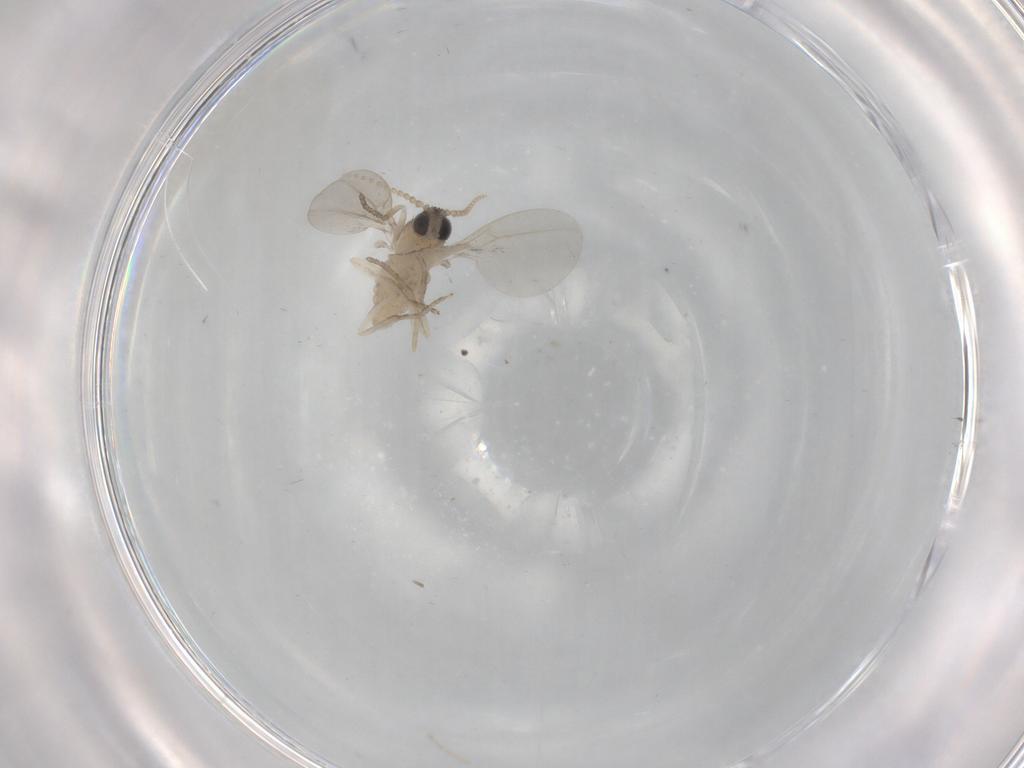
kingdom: Animalia
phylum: Arthropoda
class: Insecta
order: Diptera
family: Cecidomyiidae
